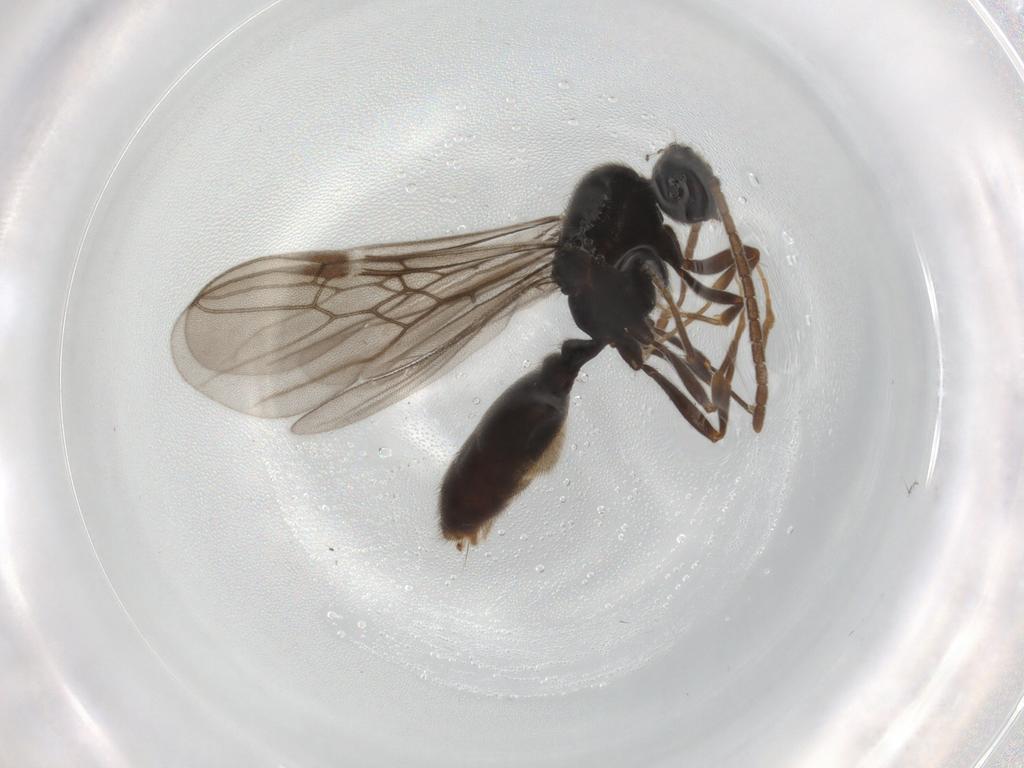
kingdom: Animalia
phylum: Arthropoda
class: Insecta
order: Hymenoptera
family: Formicidae
